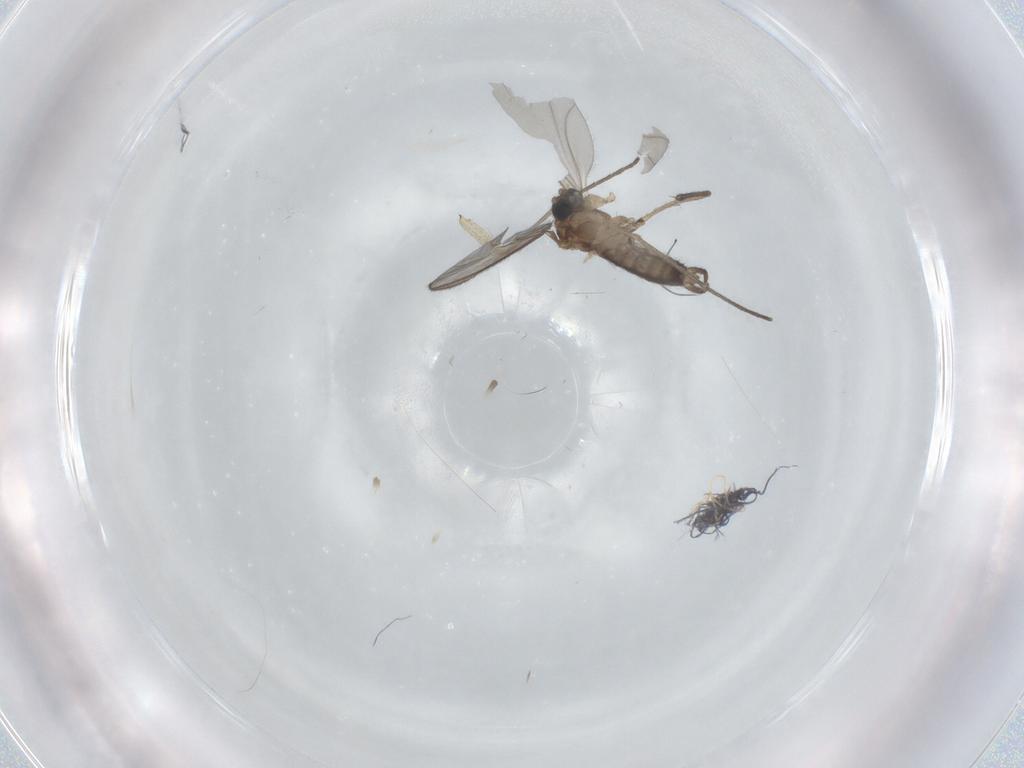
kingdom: Animalia
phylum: Arthropoda
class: Insecta
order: Diptera
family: Sciaridae
